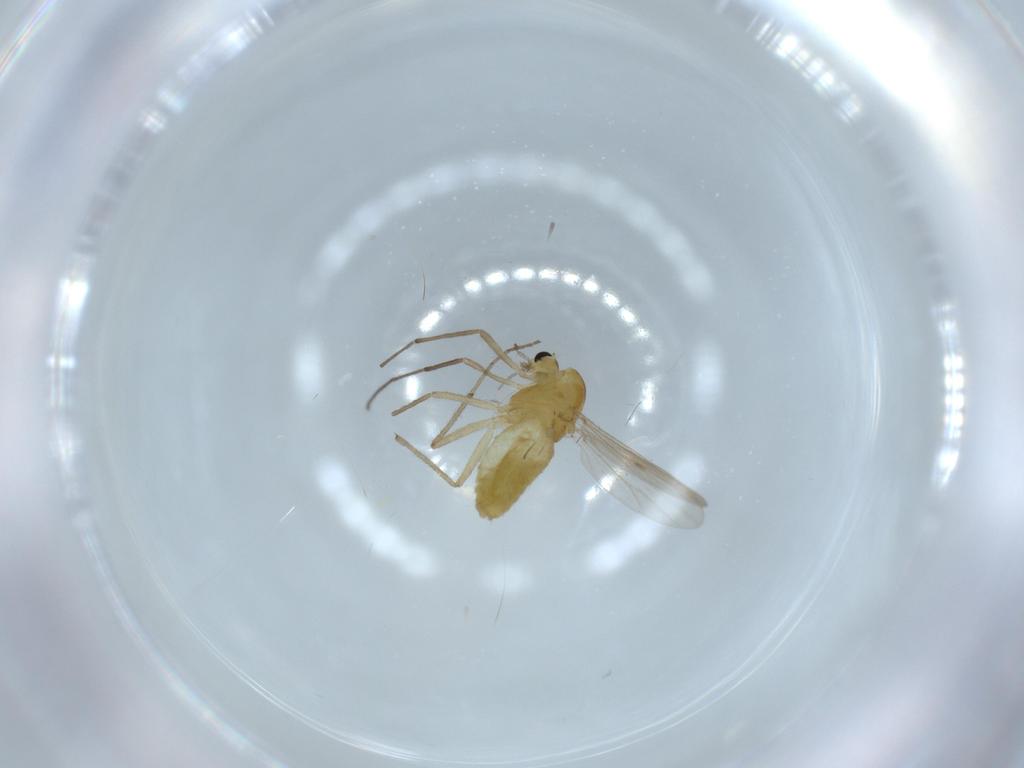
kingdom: Animalia
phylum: Arthropoda
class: Insecta
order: Diptera
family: Chironomidae
